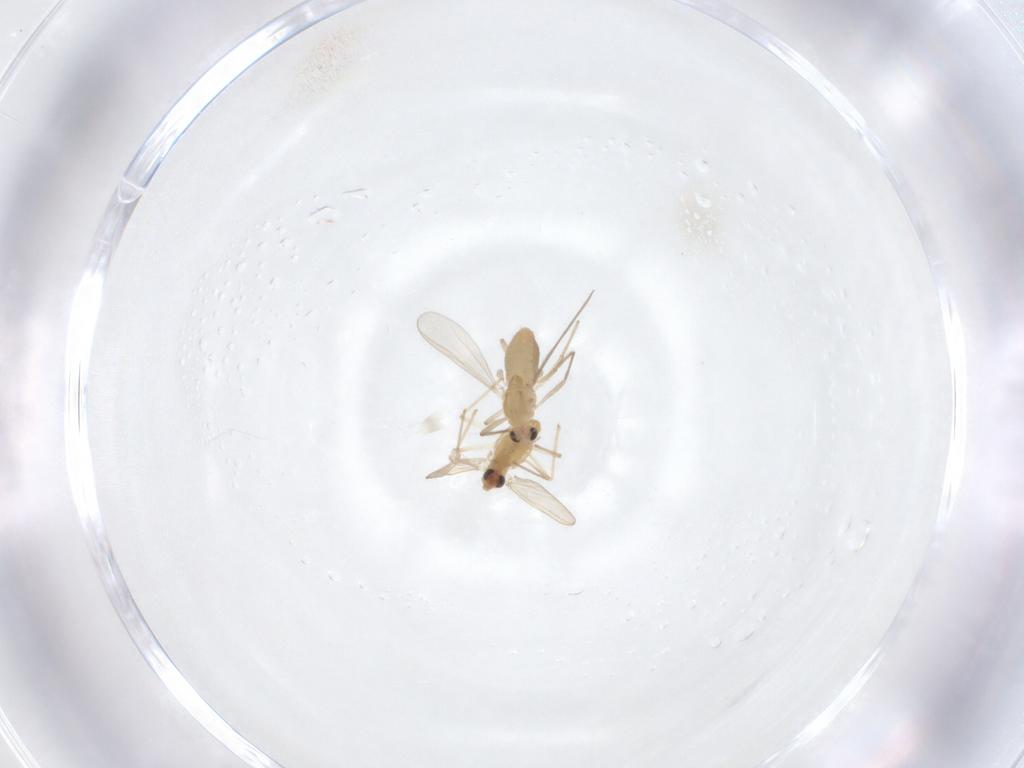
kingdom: Animalia
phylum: Arthropoda
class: Insecta
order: Diptera
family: Chironomidae
